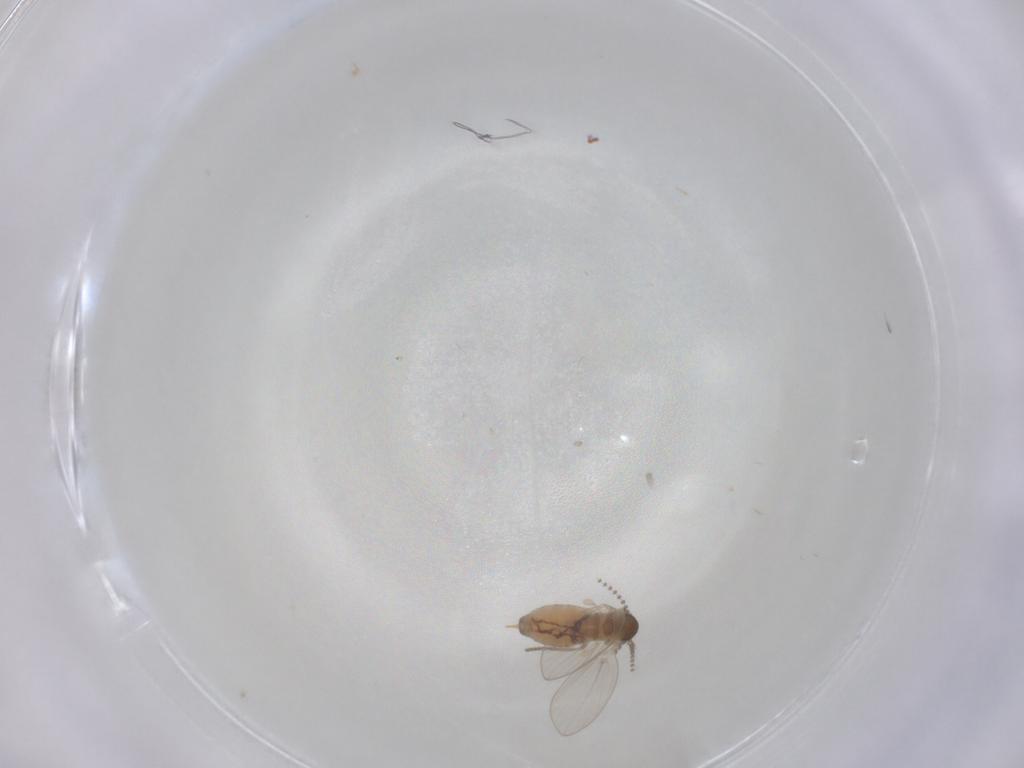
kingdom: Animalia
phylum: Arthropoda
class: Insecta
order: Diptera
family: Psychodidae
